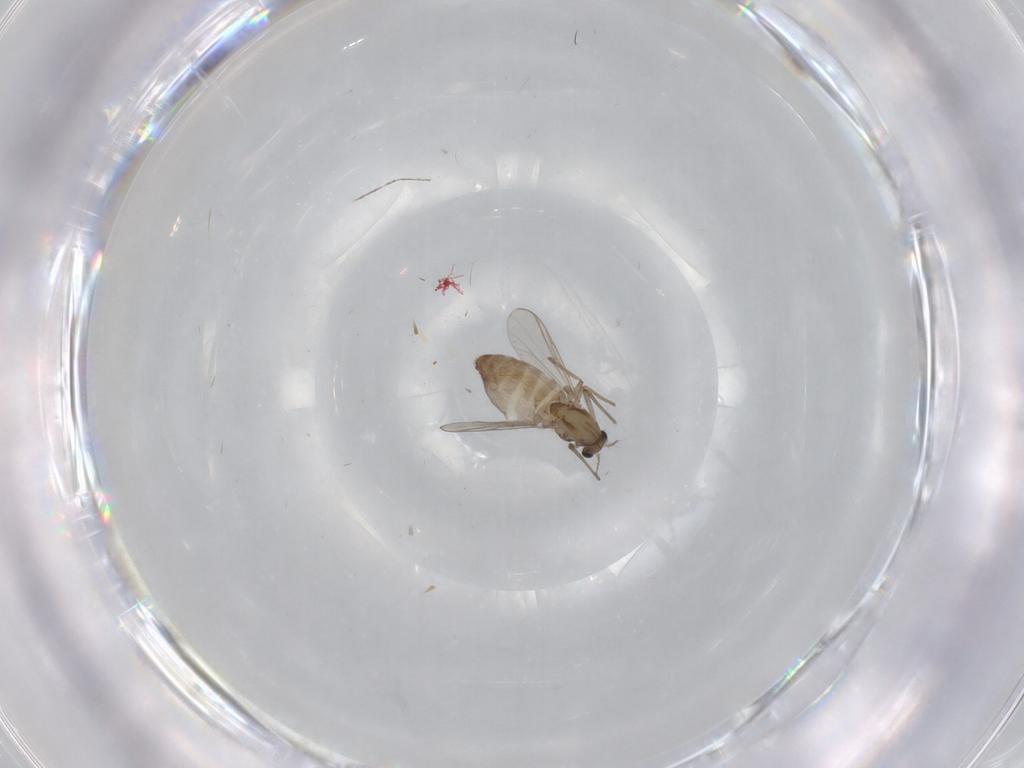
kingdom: Animalia
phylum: Arthropoda
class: Insecta
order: Diptera
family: Chironomidae
